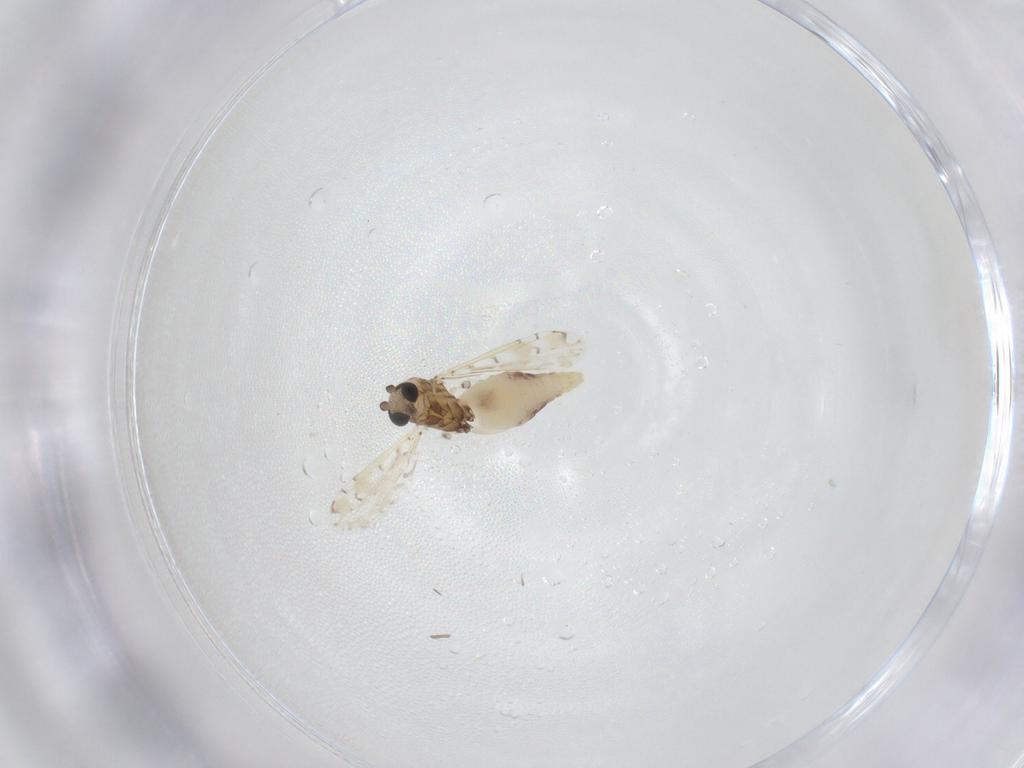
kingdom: Animalia
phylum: Arthropoda
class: Insecta
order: Diptera
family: Ceratopogonidae
